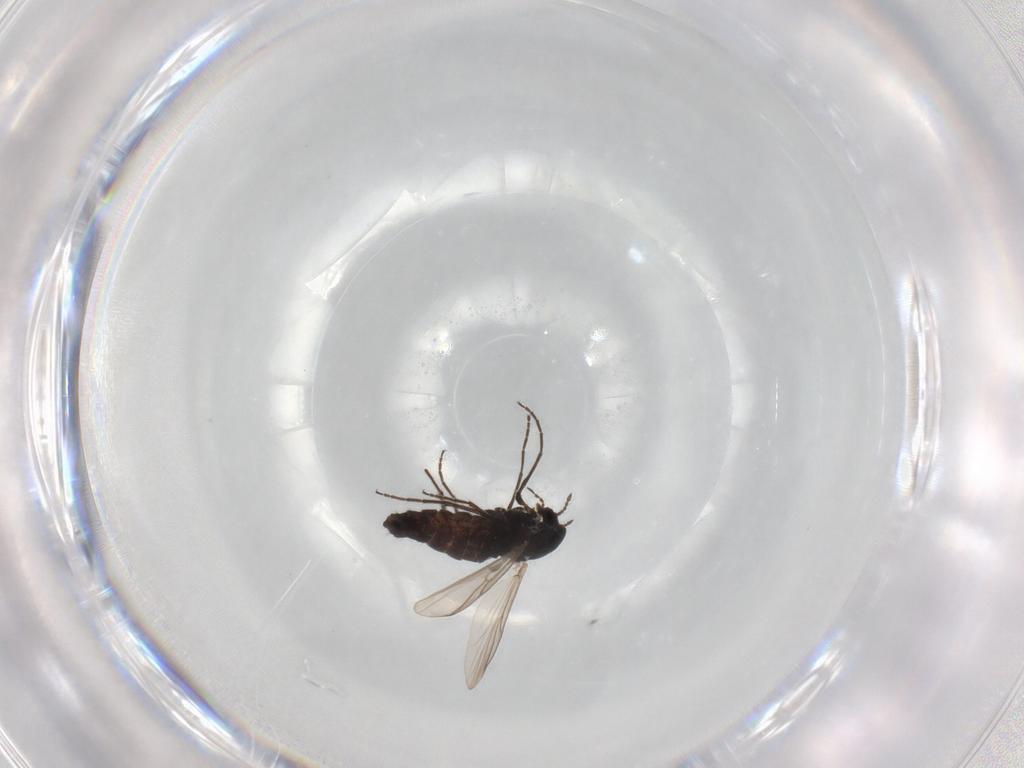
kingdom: Animalia
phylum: Arthropoda
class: Insecta
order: Diptera
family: Chironomidae
